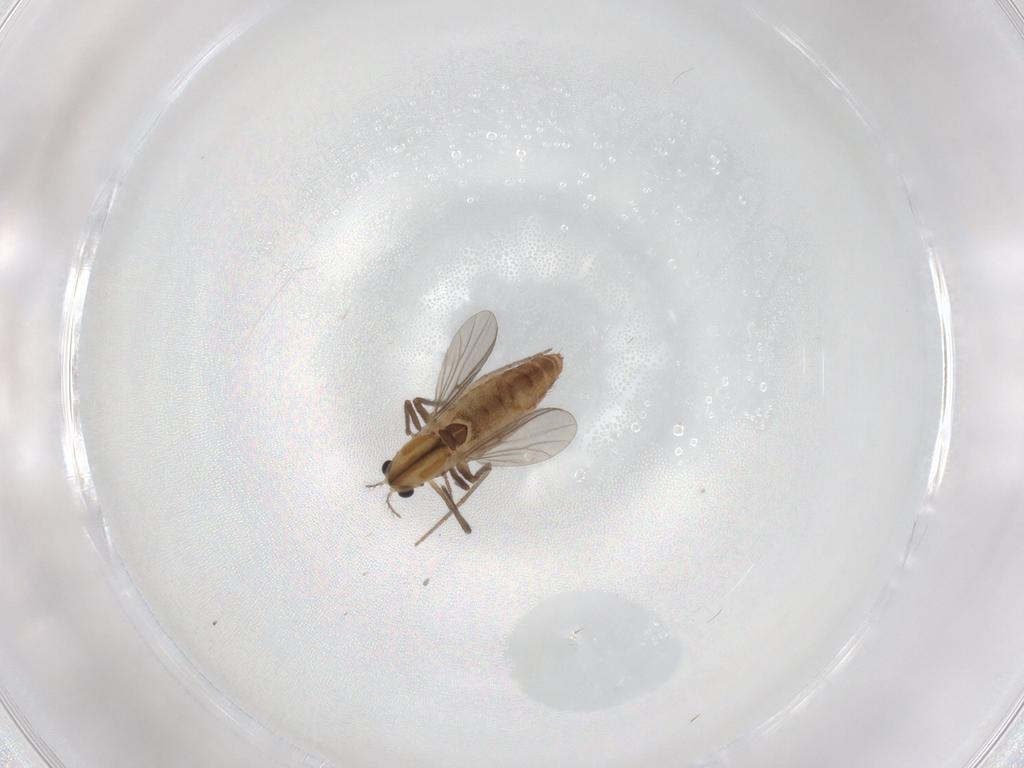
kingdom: Animalia
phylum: Arthropoda
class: Insecta
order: Diptera
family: Chironomidae
